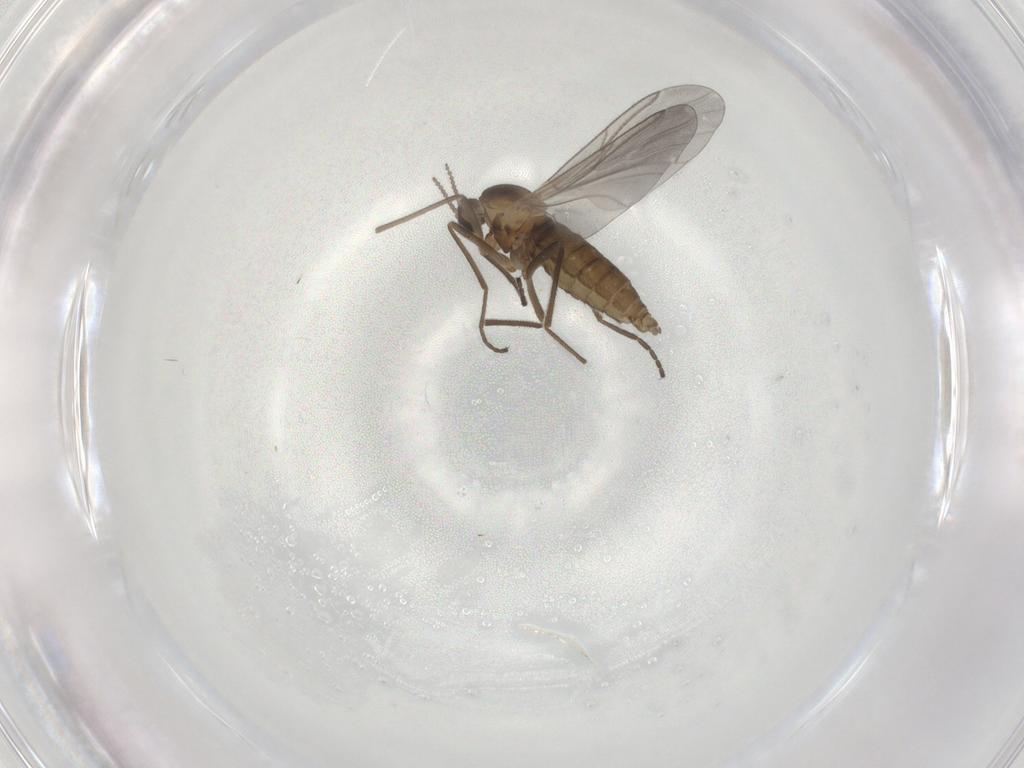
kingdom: Animalia
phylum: Arthropoda
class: Insecta
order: Diptera
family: Cecidomyiidae
